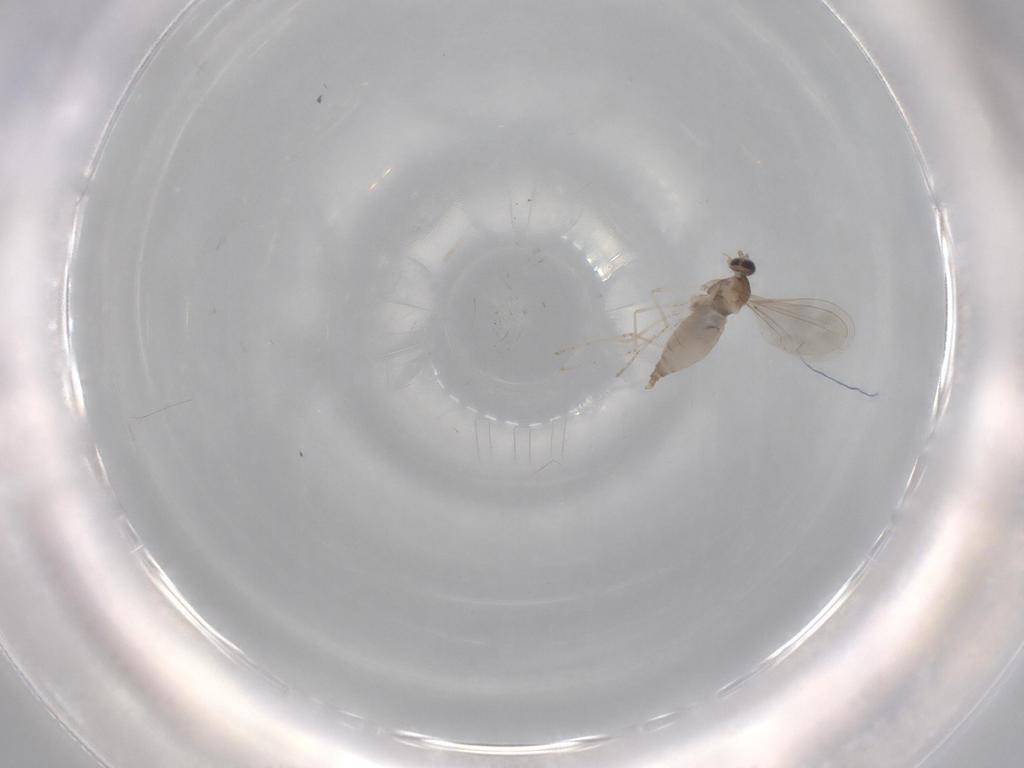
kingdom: Animalia
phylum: Arthropoda
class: Insecta
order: Diptera
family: Cecidomyiidae
